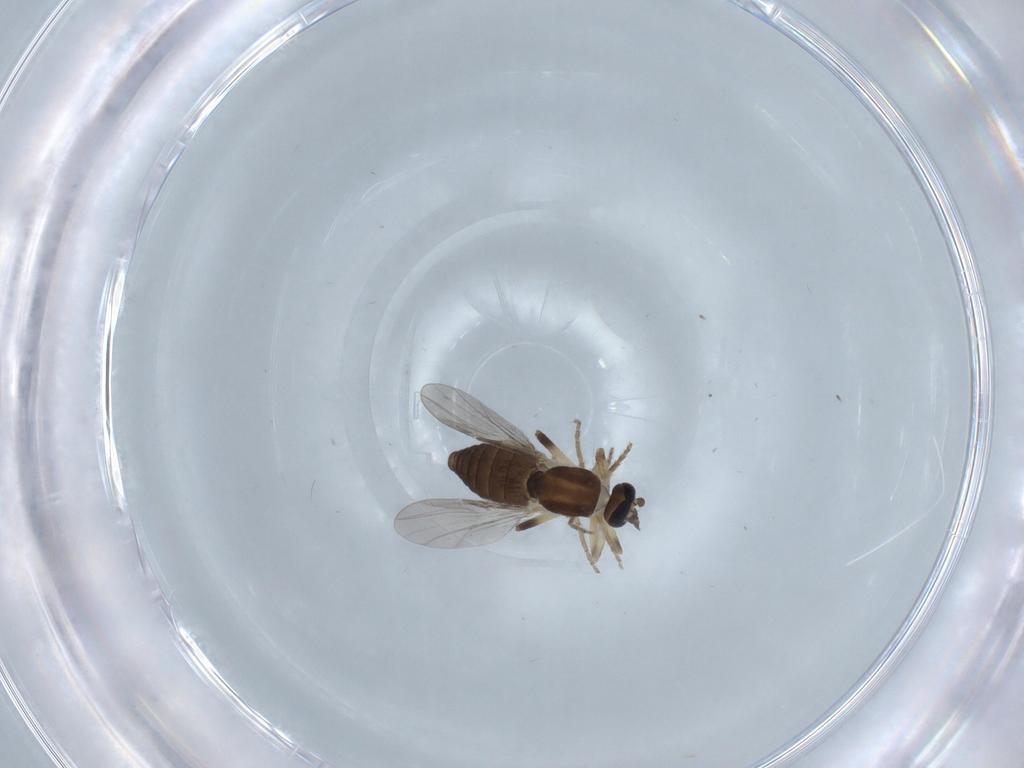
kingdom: Animalia
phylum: Arthropoda
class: Insecta
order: Diptera
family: Ceratopogonidae
